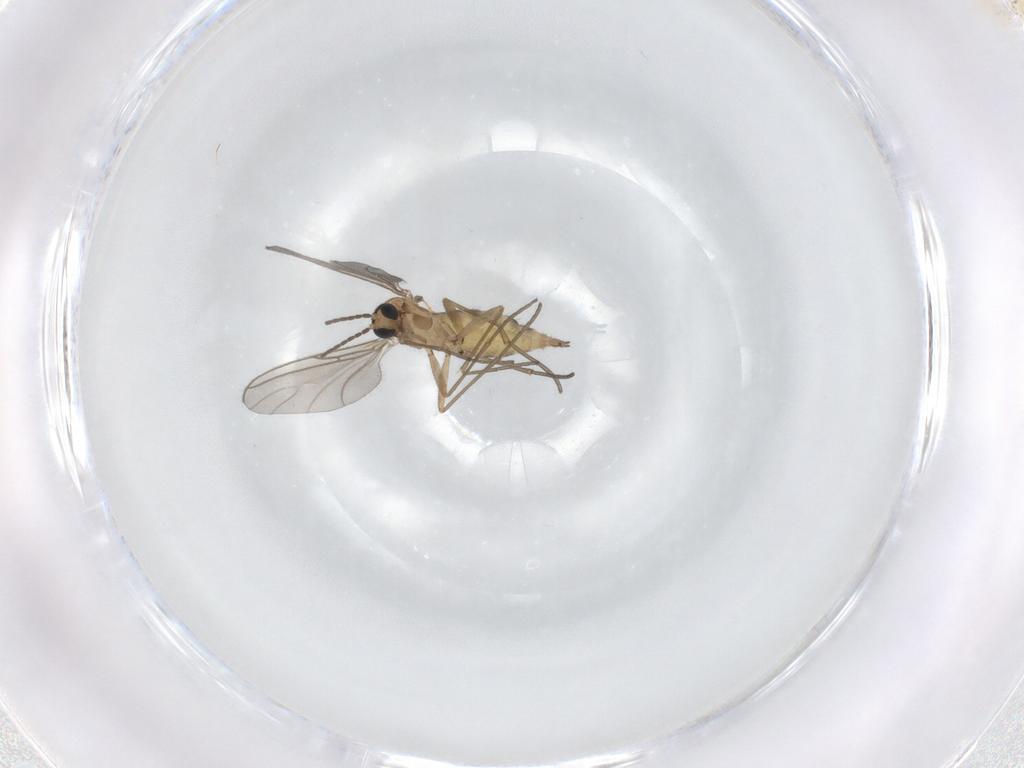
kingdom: Animalia
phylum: Arthropoda
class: Insecta
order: Diptera
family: Sciaridae
